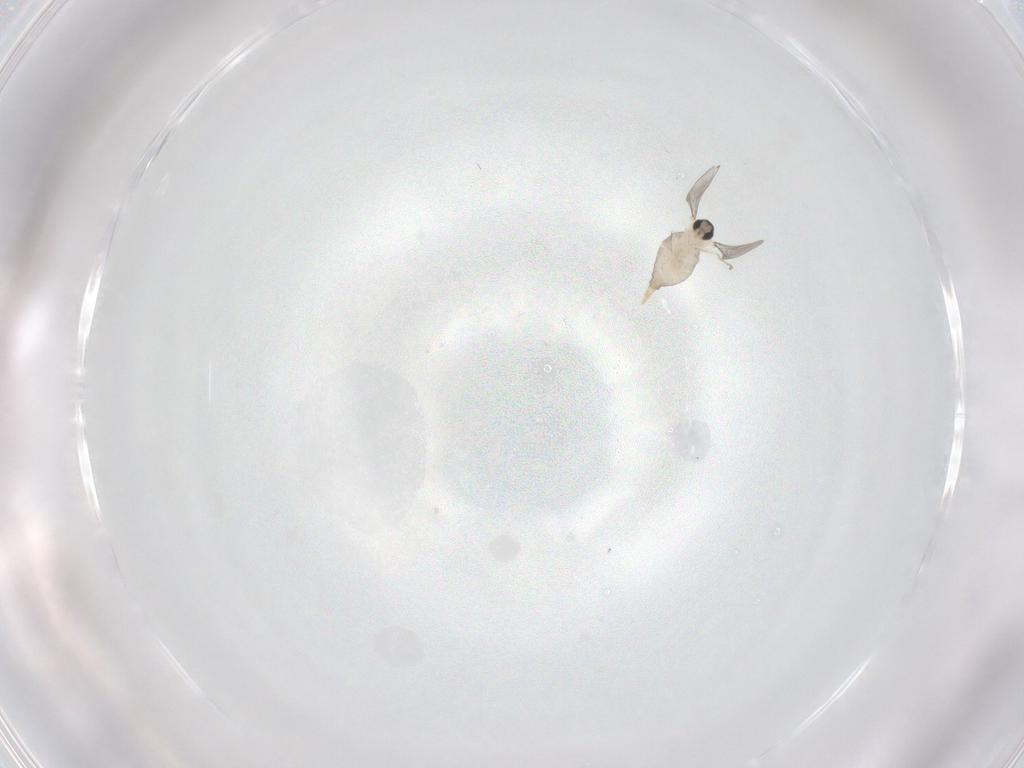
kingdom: Animalia
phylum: Arthropoda
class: Insecta
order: Diptera
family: Cecidomyiidae
